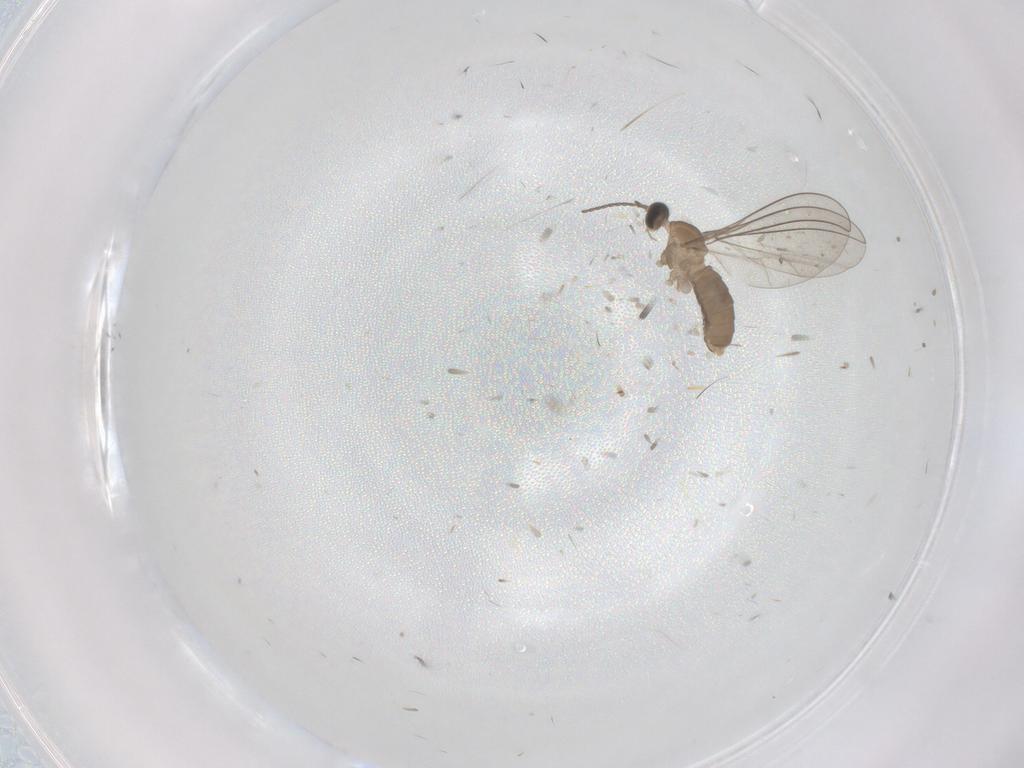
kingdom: Animalia
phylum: Arthropoda
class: Insecta
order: Diptera
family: Cecidomyiidae
